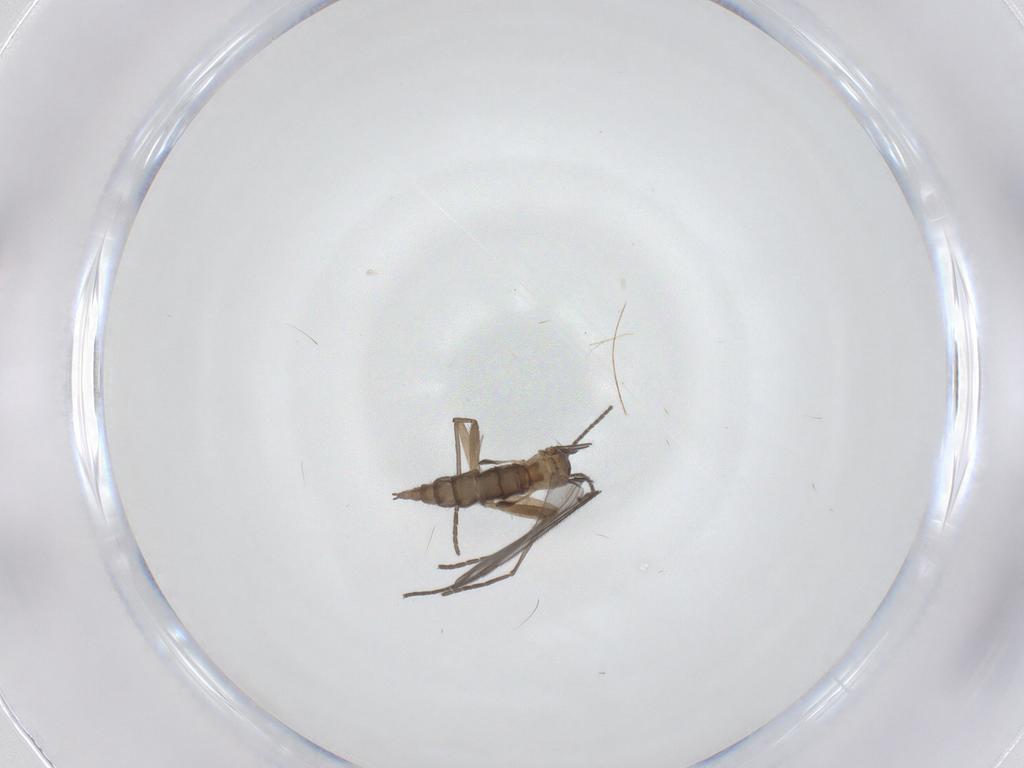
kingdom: Animalia
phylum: Arthropoda
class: Insecta
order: Diptera
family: Sciaridae
